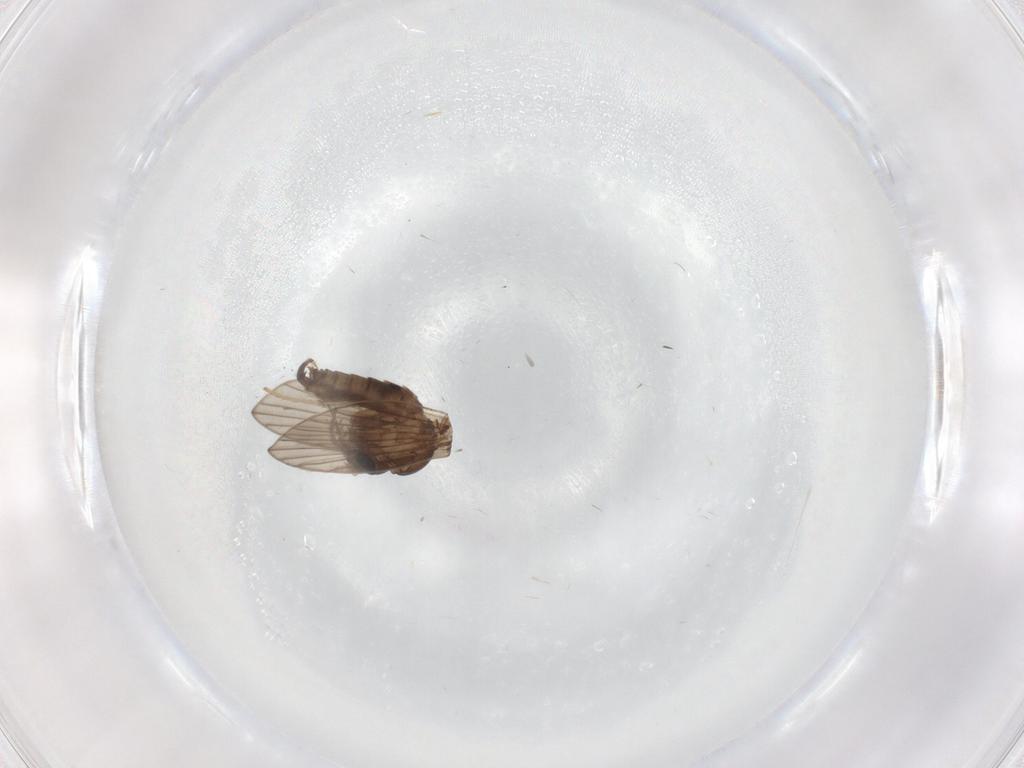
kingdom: Animalia
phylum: Arthropoda
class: Insecta
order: Diptera
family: Psychodidae
